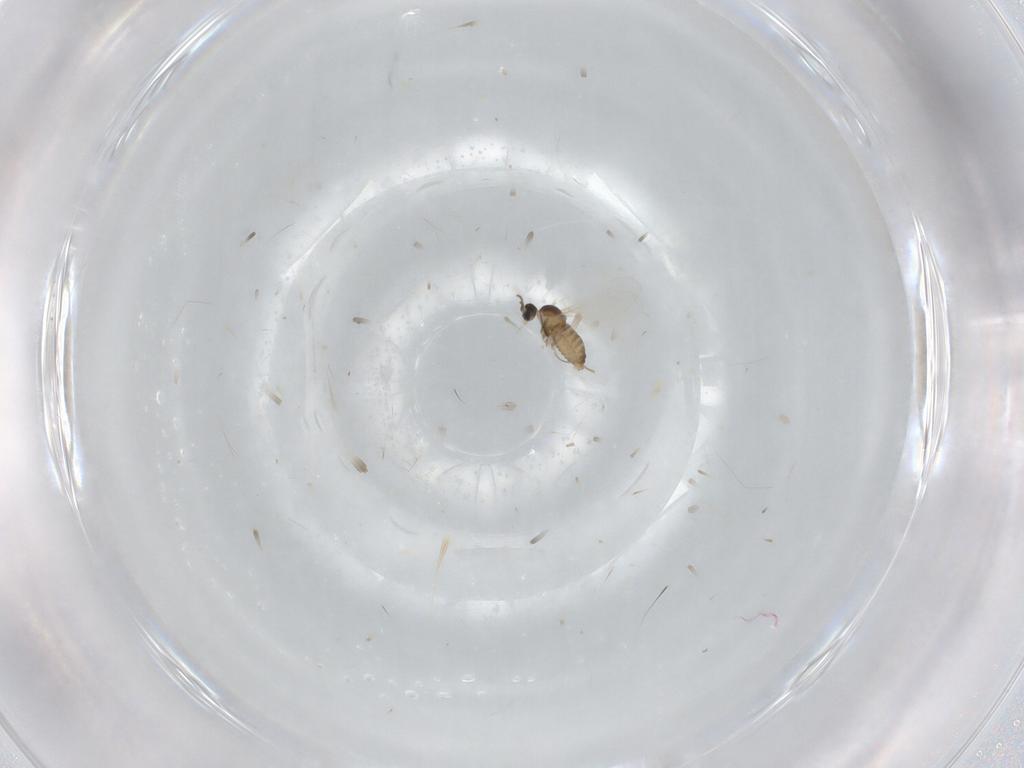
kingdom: Animalia
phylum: Arthropoda
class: Insecta
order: Diptera
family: Cecidomyiidae
